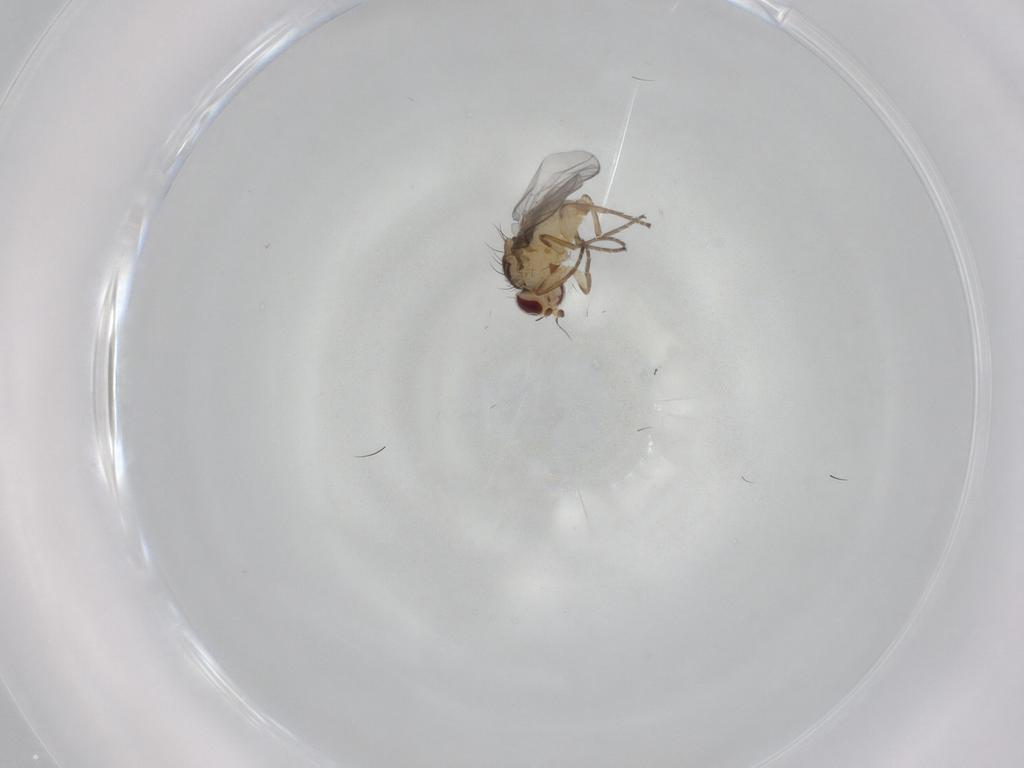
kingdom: Animalia
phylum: Arthropoda
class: Insecta
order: Diptera
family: Agromyzidae
